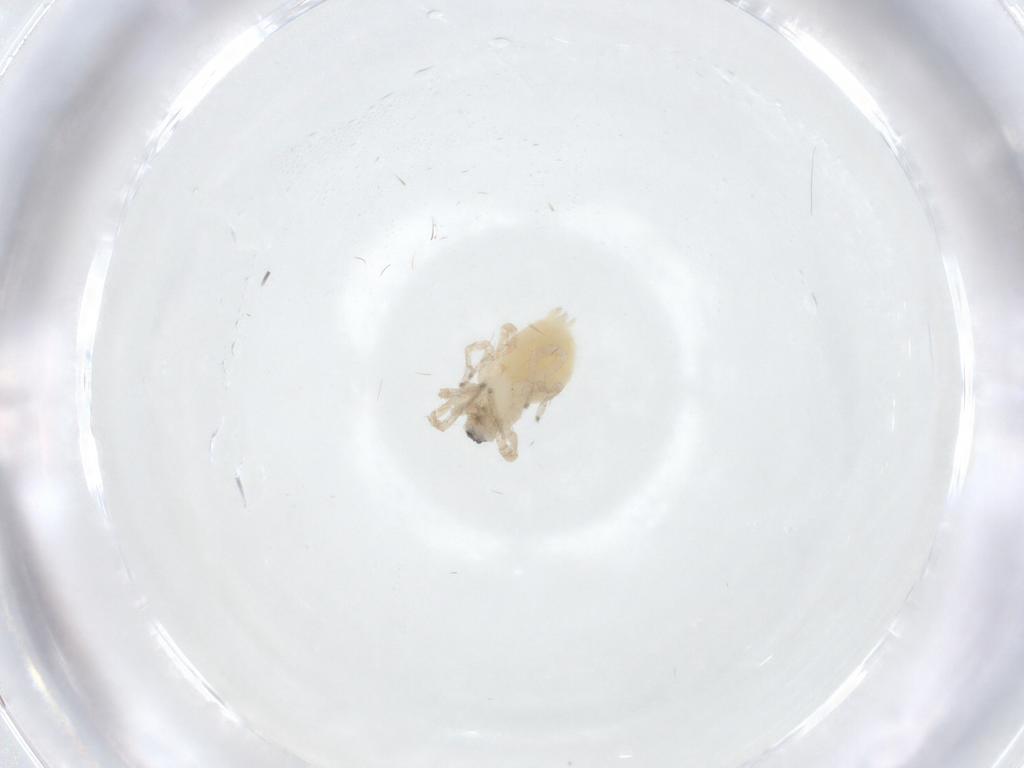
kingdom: Animalia
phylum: Arthropoda
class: Arachnida
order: Araneae
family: Anyphaenidae
